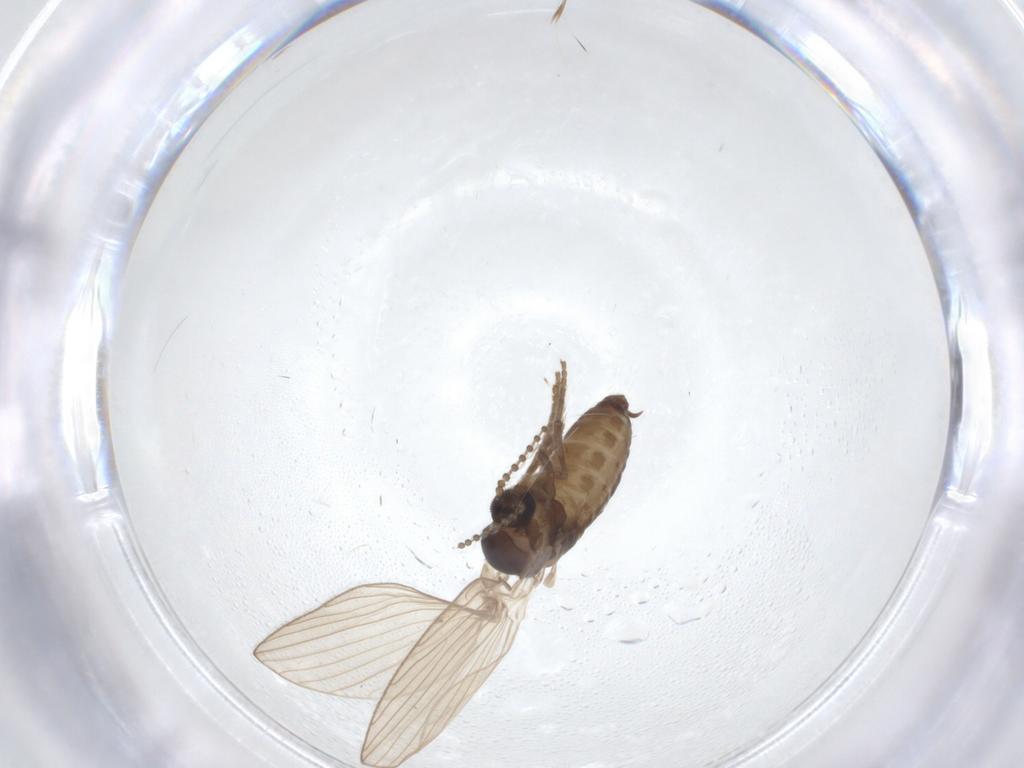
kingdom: Animalia
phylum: Arthropoda
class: Insecta
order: Diptera
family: Psychodidae
